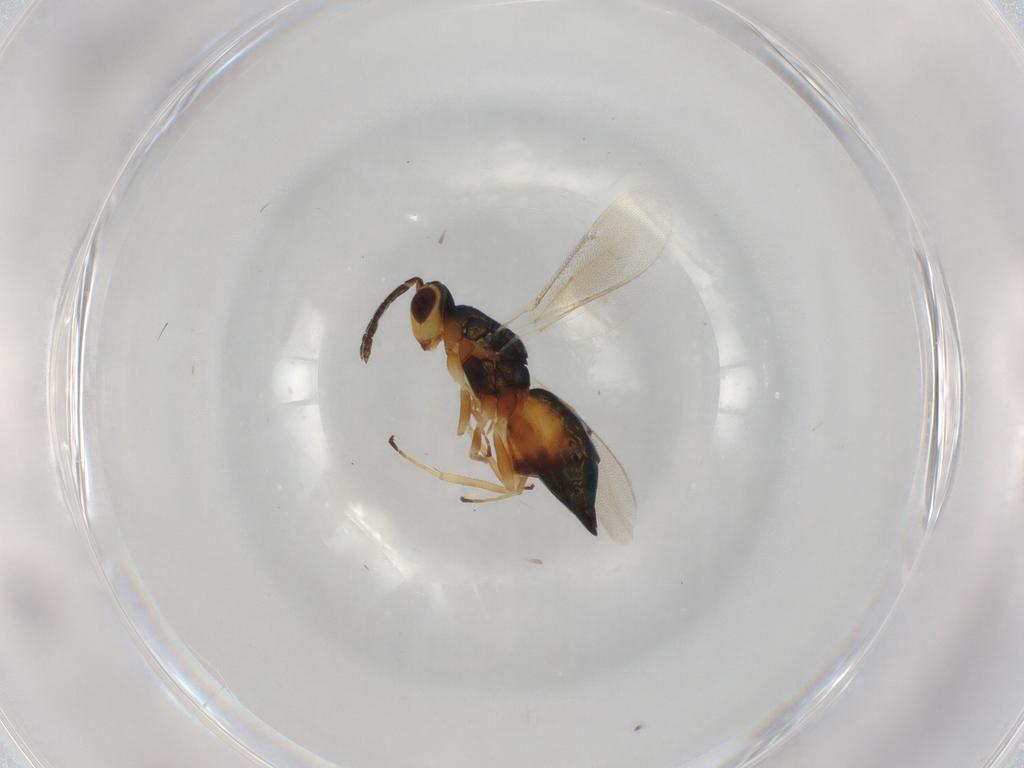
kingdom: Animalia
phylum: Arthropoda
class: Insecta
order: Hymenoptera
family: Eulophidae
